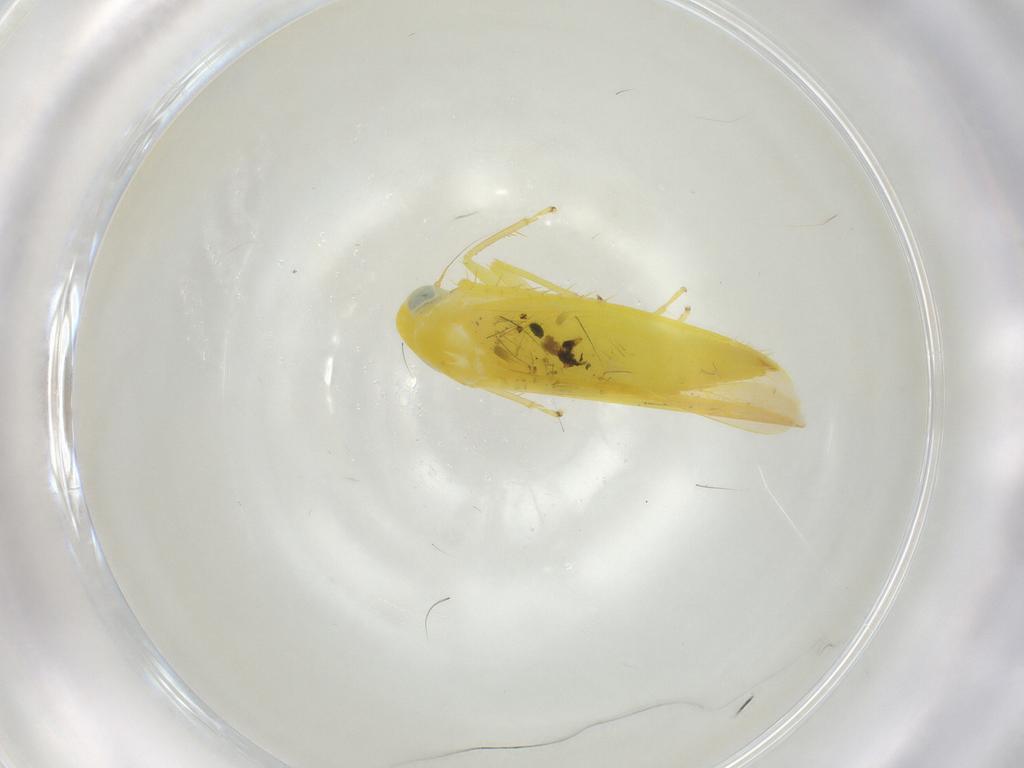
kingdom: Animalia
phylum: Arthropoda
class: Insecta
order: Hemiptera
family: Cicadellidae
